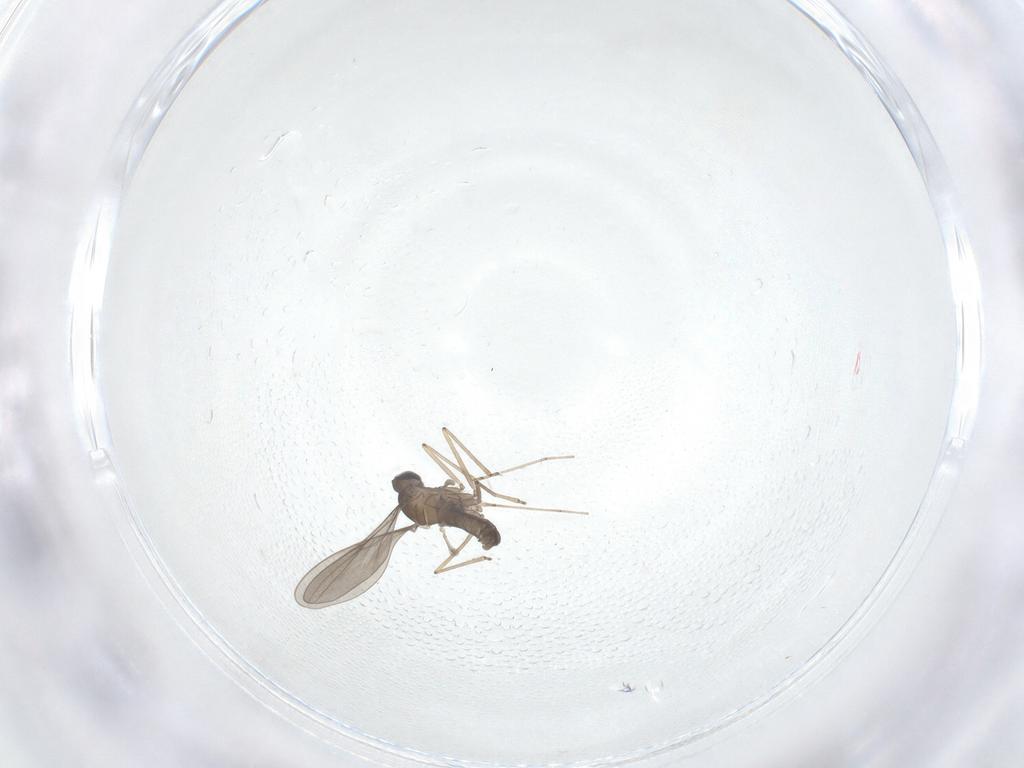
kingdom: Animalia
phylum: Arthropoda
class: Insecta
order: Diptera
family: Cecidomyiidae
